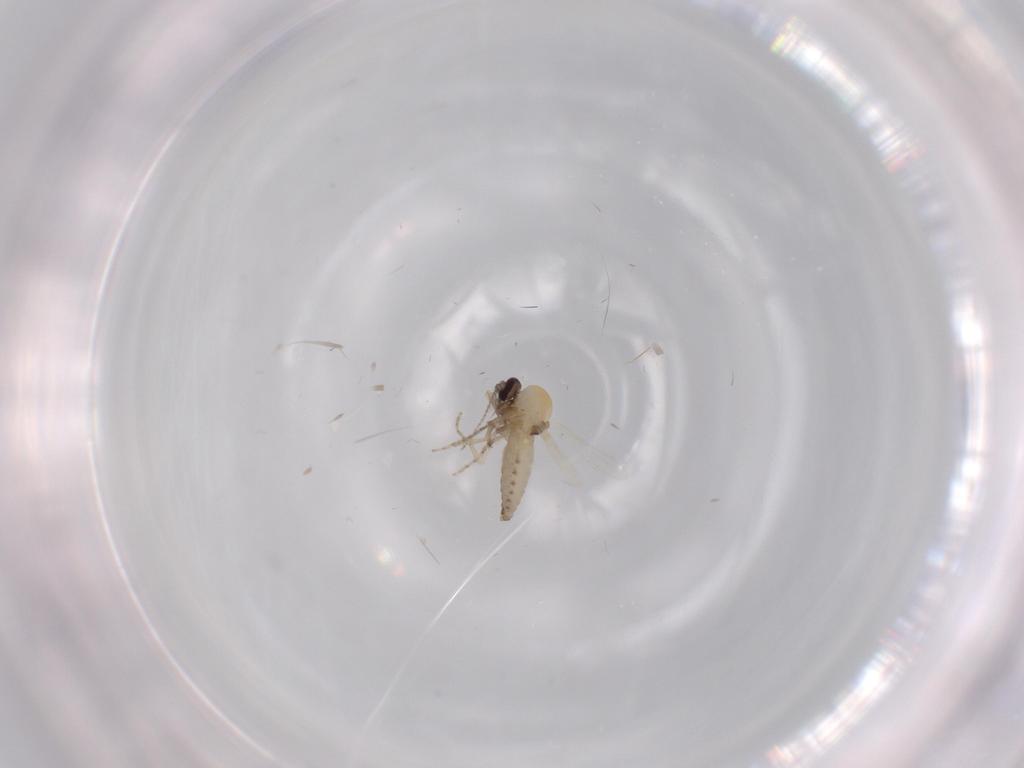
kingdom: Animalia
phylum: Arthropoda
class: Insecta
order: Diptera
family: Ceratopogonidae
